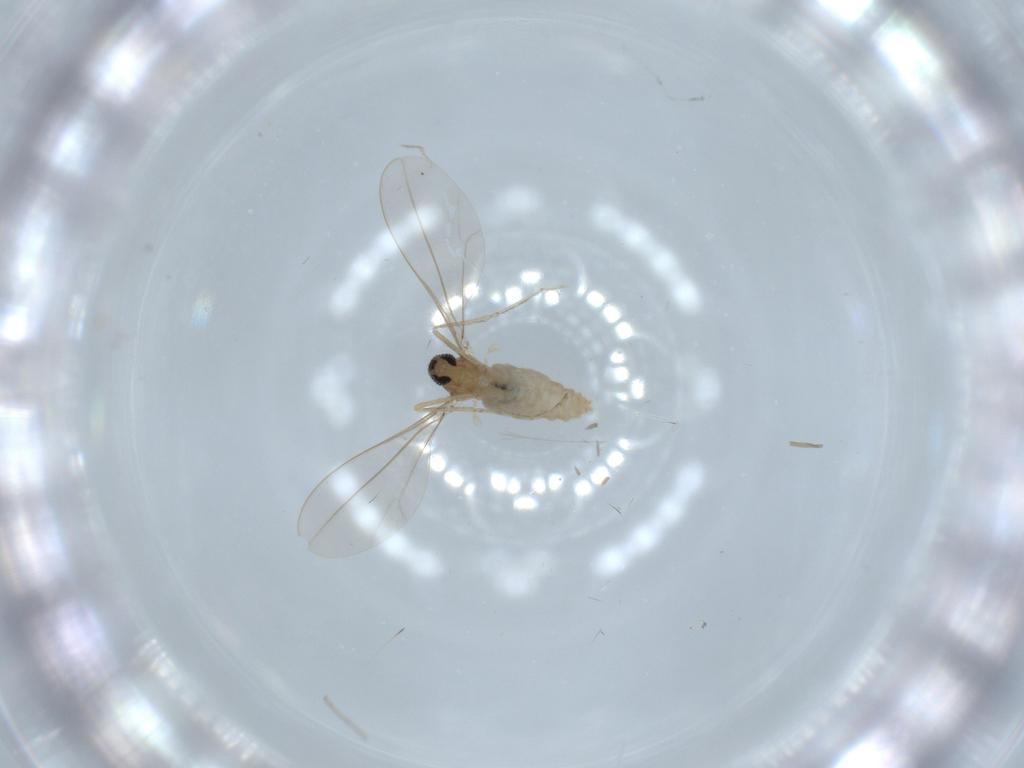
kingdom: Animalia
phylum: Arthropoda
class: Insecta
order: Diptera
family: Cecidomyiidae
